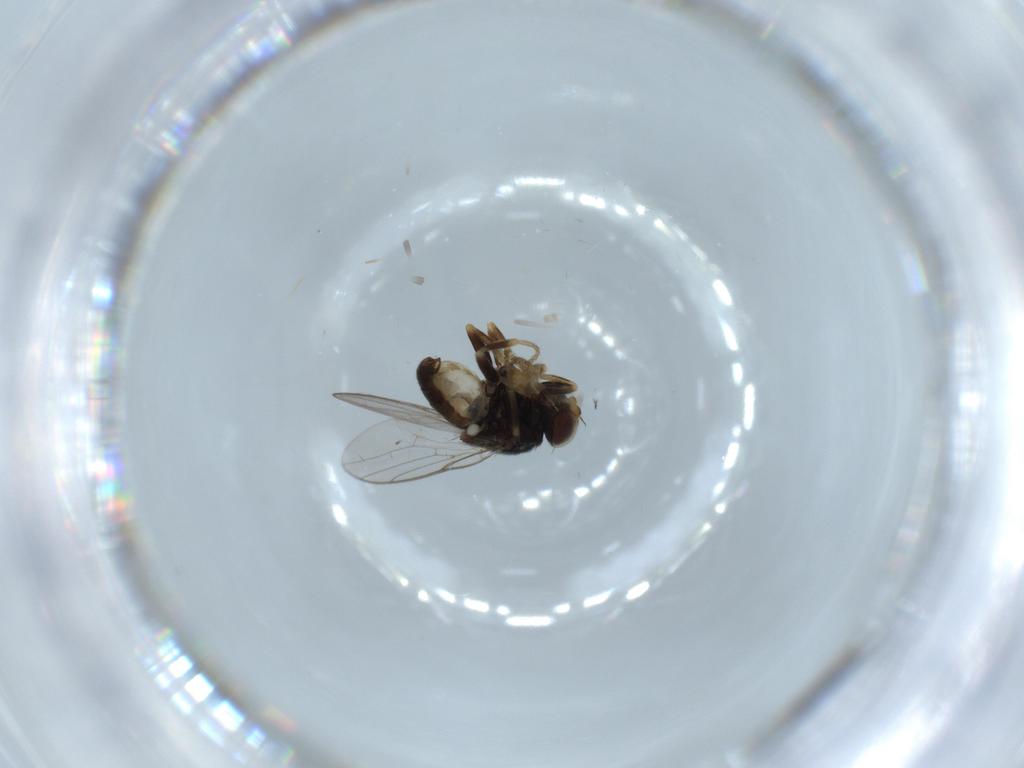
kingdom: Animalia
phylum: Arthropoda
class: Insecta
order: Diptera
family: Chloropidae
